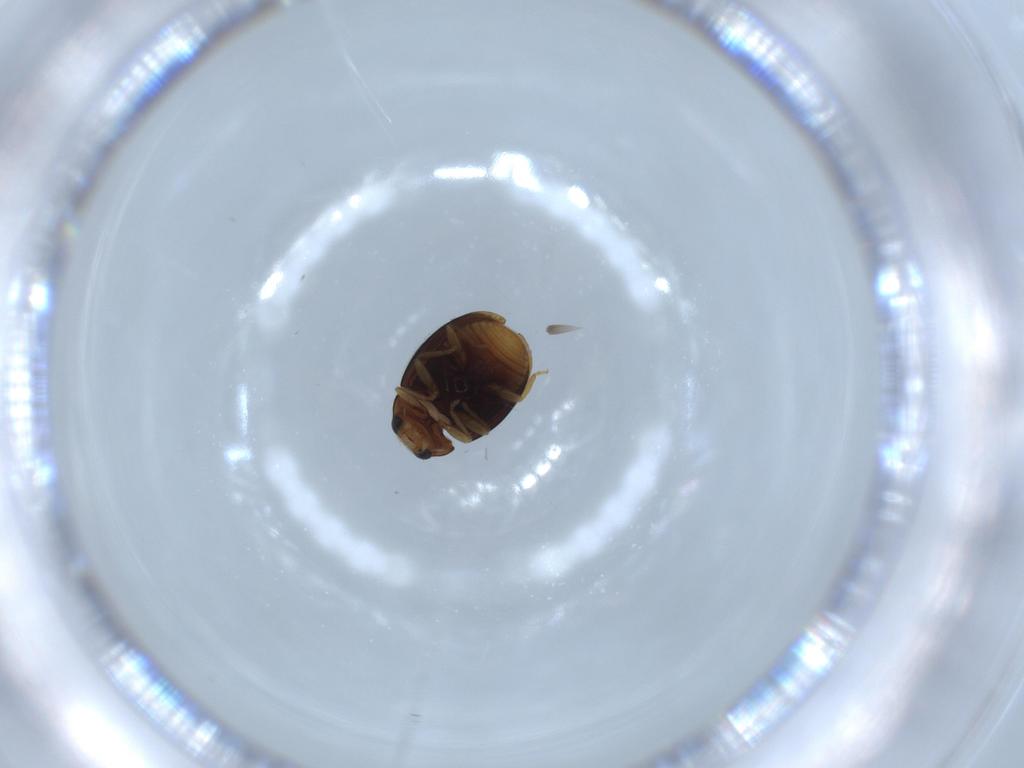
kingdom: Animalia
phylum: Arthropoda
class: Insecta
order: Coleoptera
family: Coccinellidae
